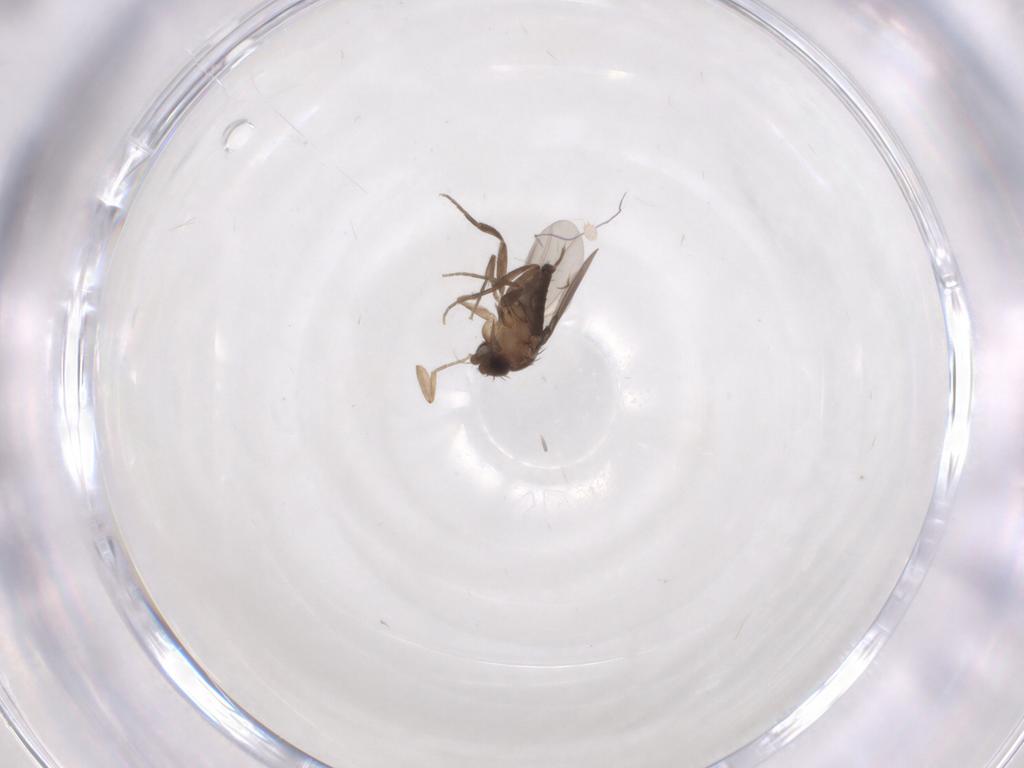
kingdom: Animalia
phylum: Arthropoda
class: Insecta
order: Diptera
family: Phoridae
